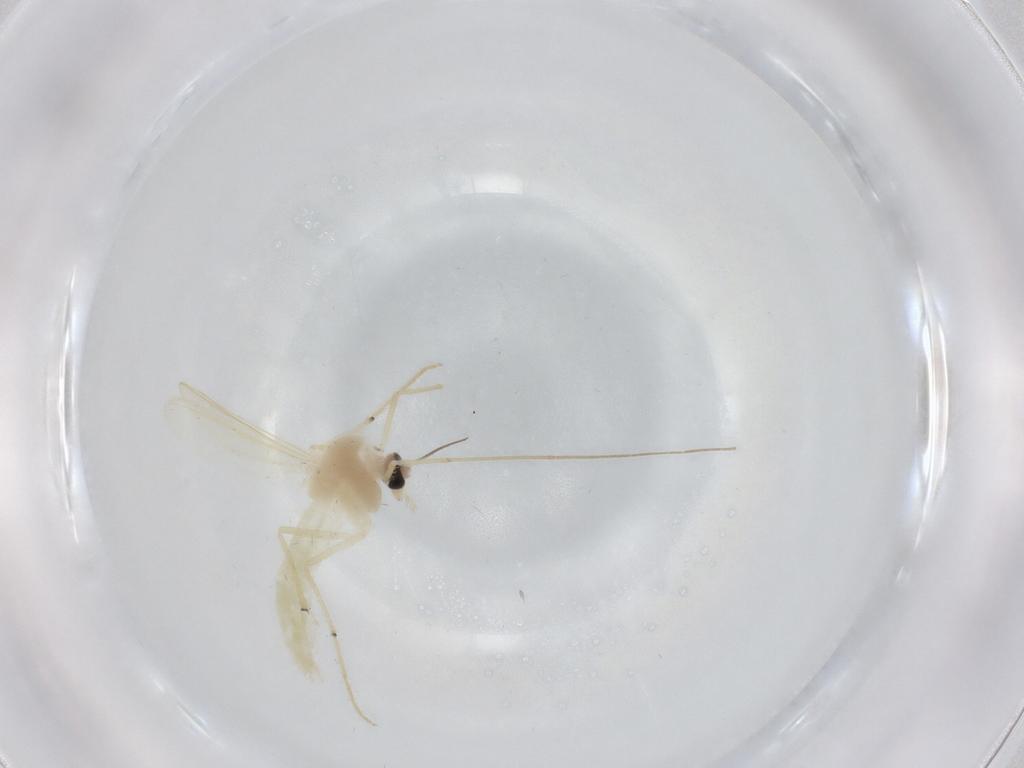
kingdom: Animalia
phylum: Arthropoda
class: Insecta
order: Diptera
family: Chironomidae
